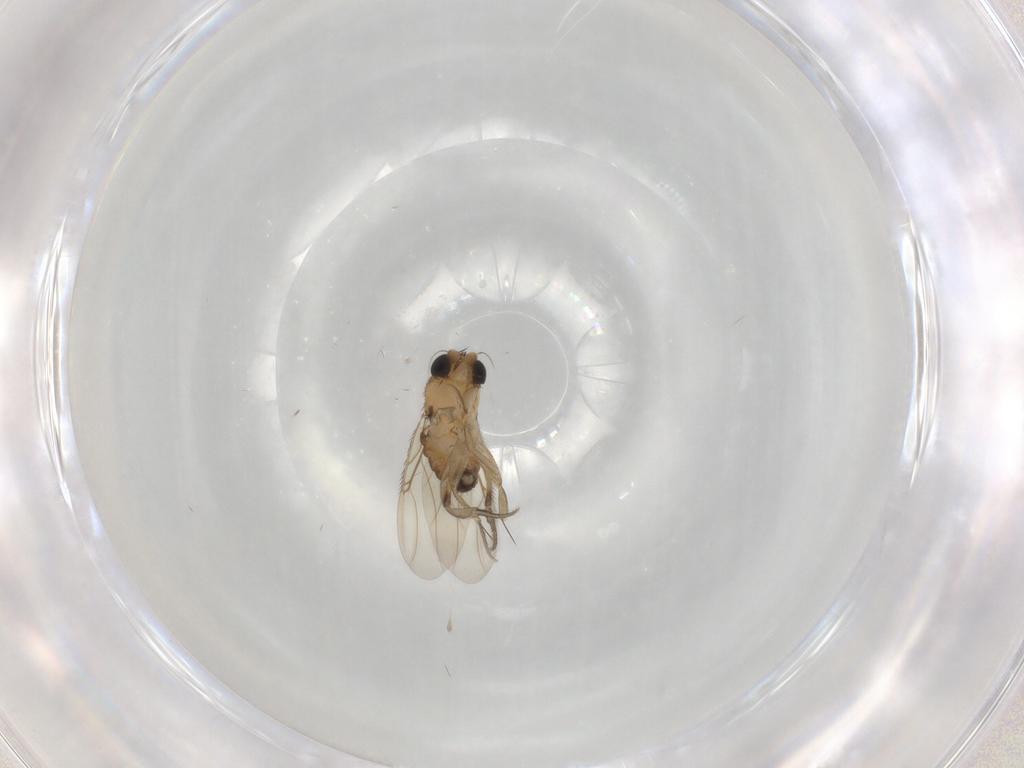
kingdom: Animalia
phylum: Arthropoda
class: Insecta
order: Diptera
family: Phoridae
